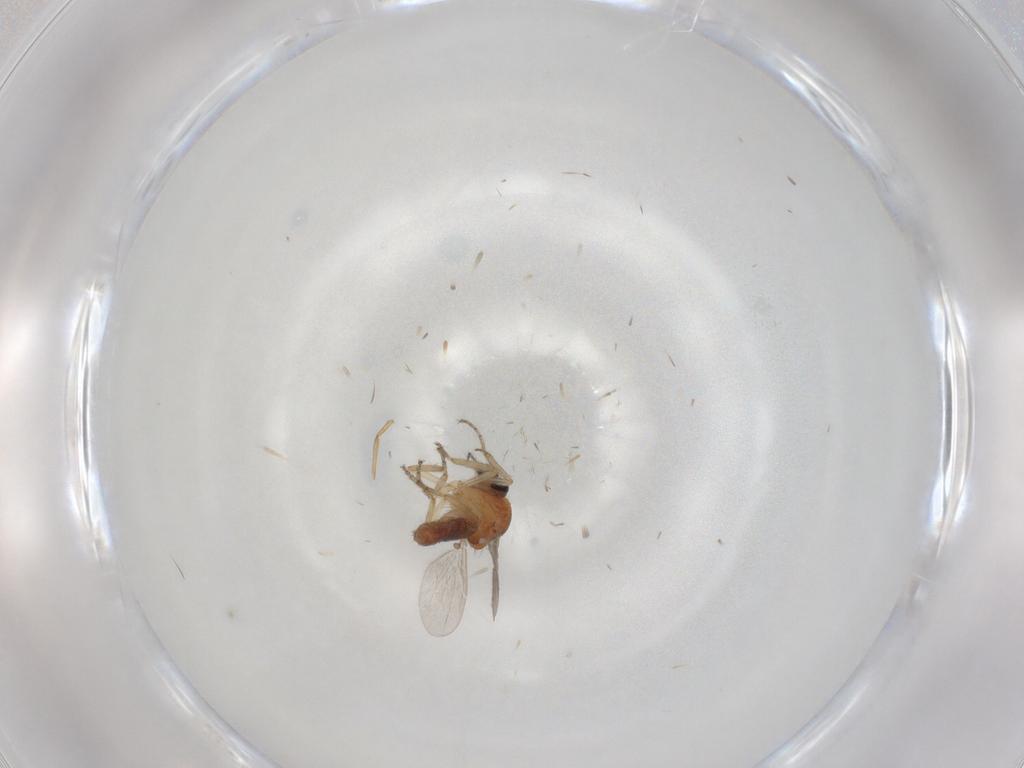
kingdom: Animalia
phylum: Arthropoda
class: Insecta
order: Diptera
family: Ceratopogonidae
